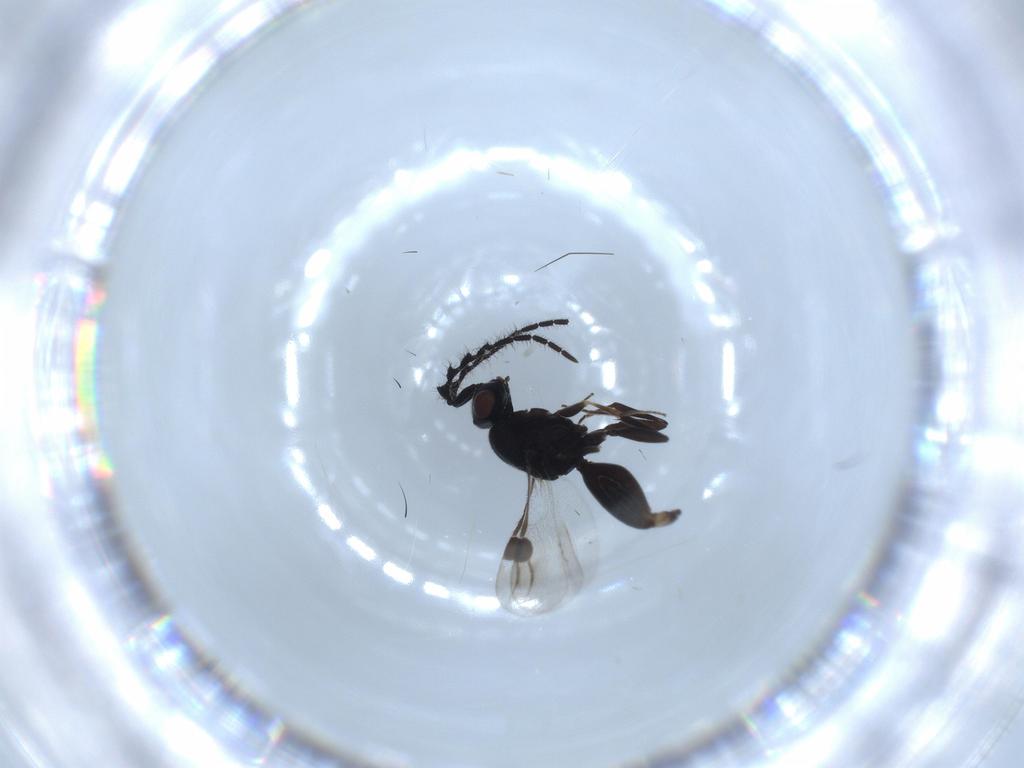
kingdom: Animalia
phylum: Arthropoda
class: Insecta
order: Hymenoptera
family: Megaspilidae
